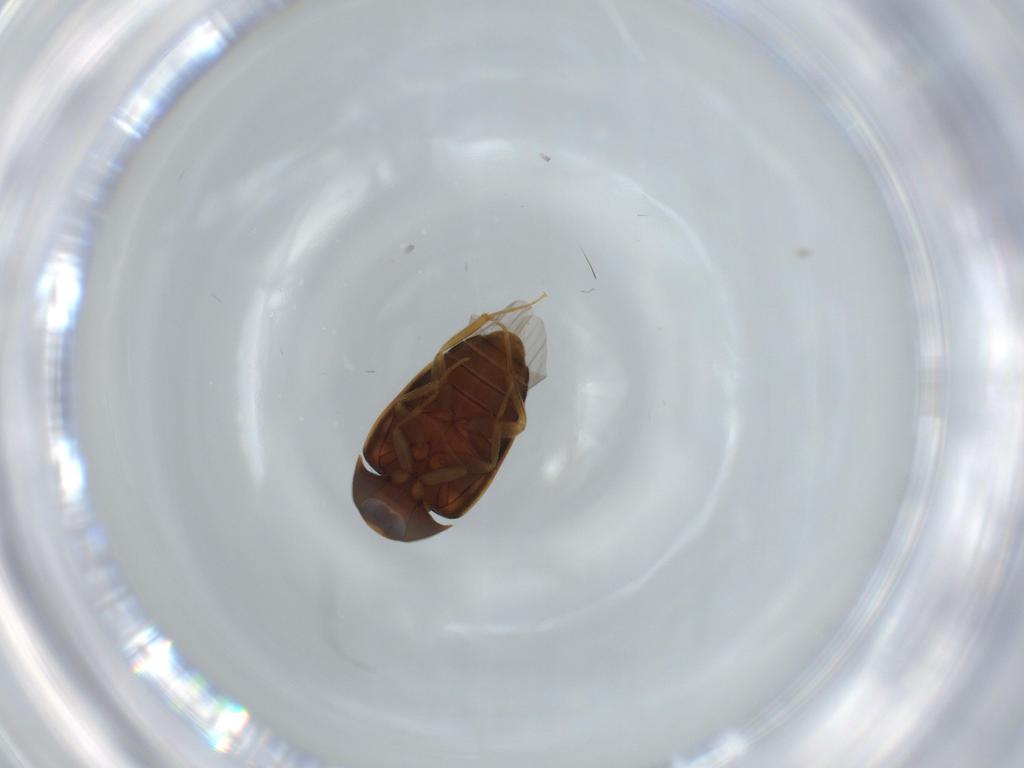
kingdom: Animalia
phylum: Arthropoda
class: Insecta
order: Coleoptera
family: Mycetophagidae
